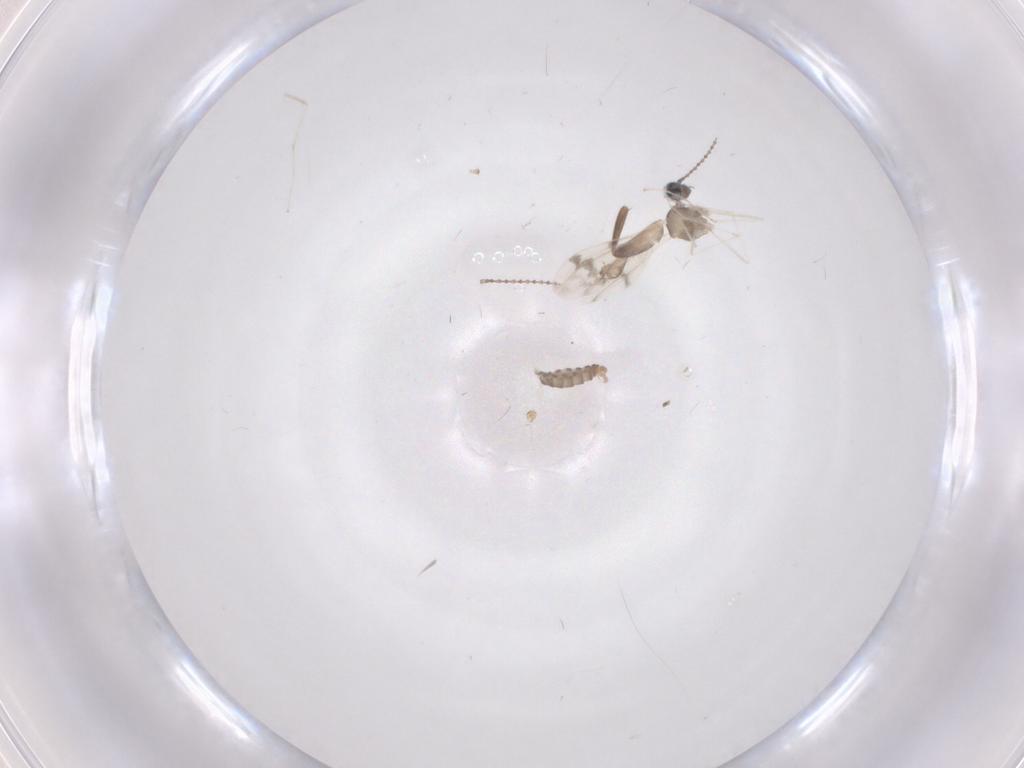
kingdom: Animalia
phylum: Arthropoda
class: Insecta
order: Diptera
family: Cecidomyiidae
